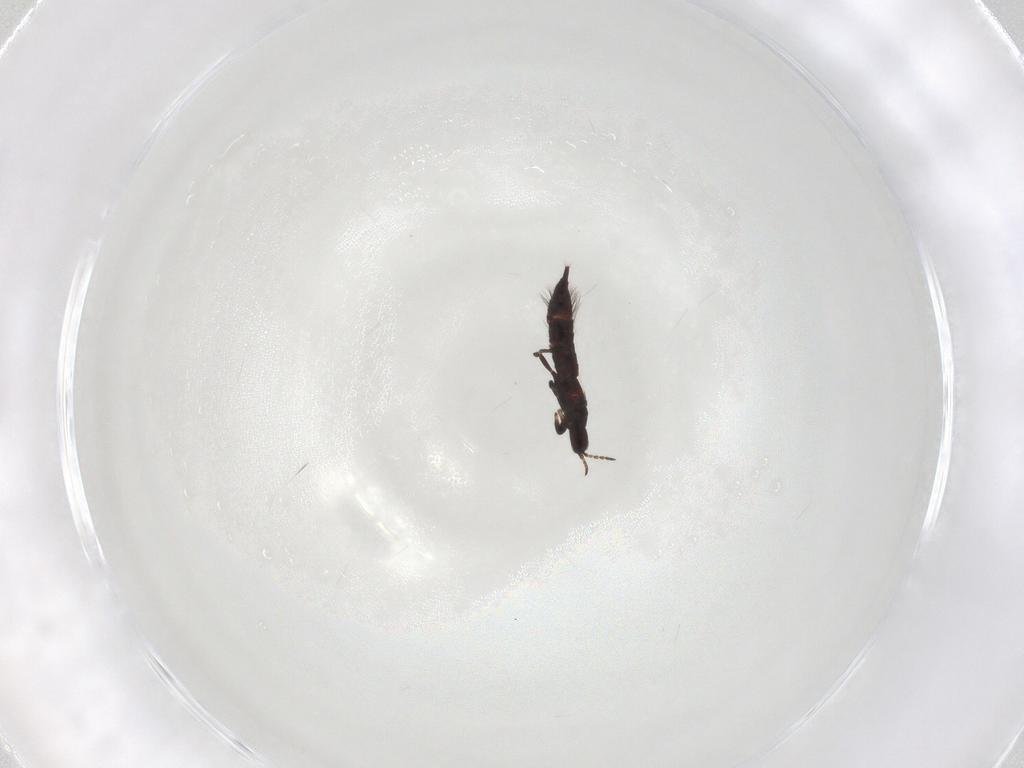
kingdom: Animalia
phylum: Arthropoda
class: Insecta
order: Thysanoptera
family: Phlaeothripidae
